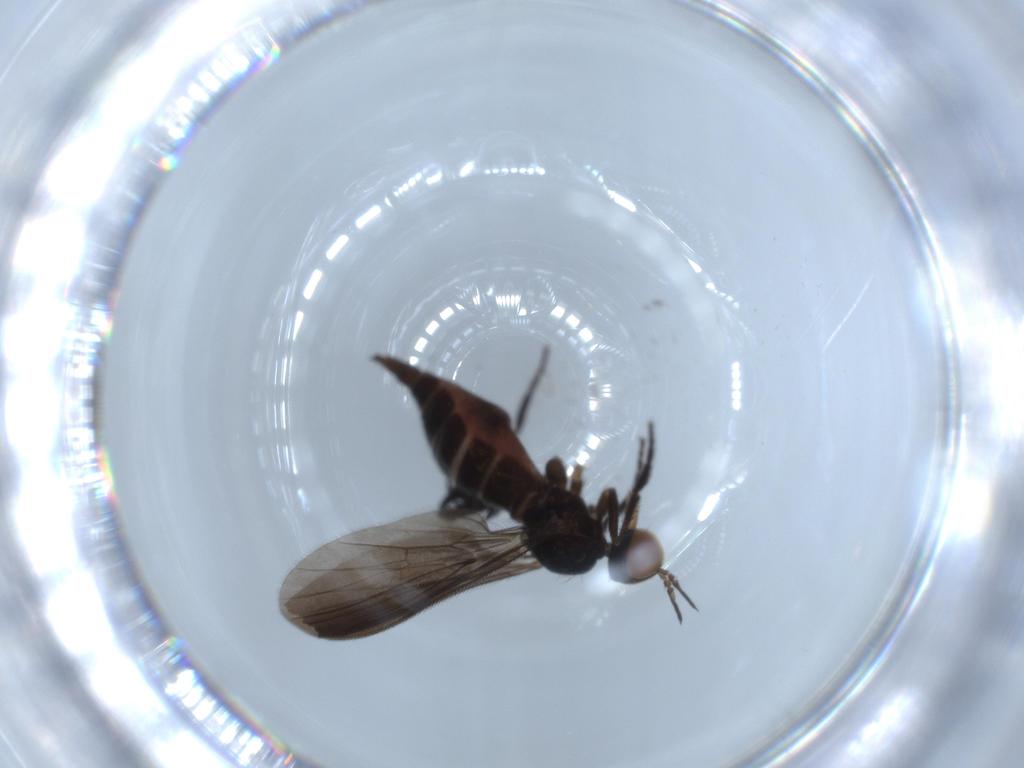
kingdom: Animalia
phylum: Arthropoda
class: Insecta
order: Diptera
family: Empididae
